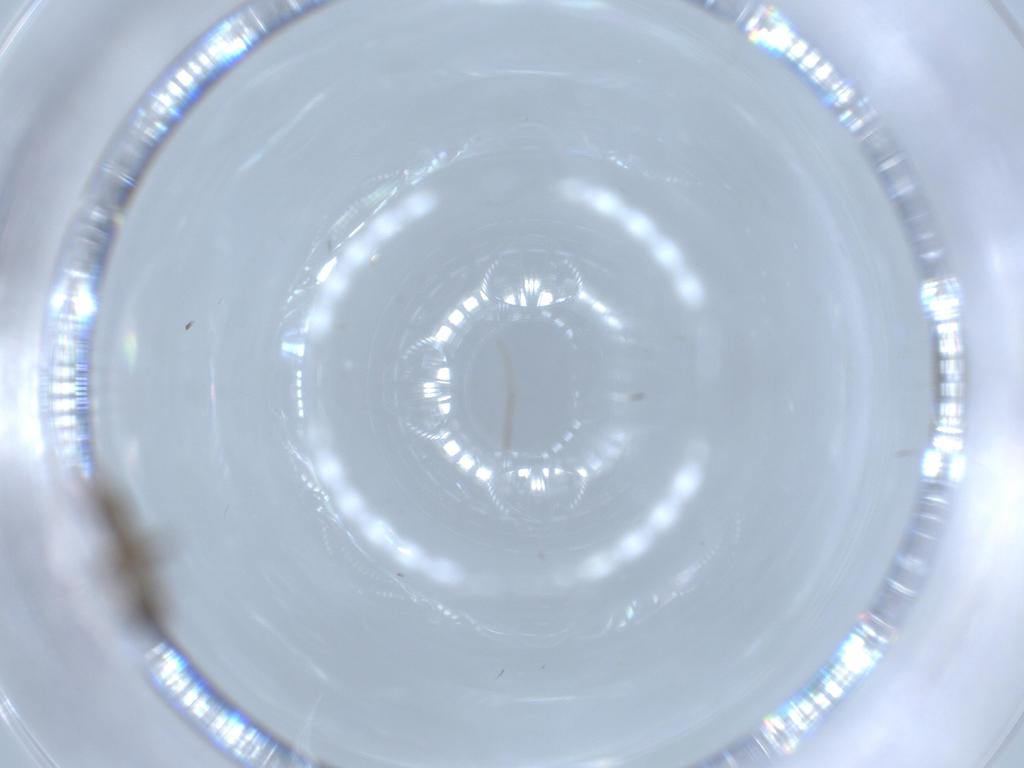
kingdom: Animalia
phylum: Arthropoda
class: Insecta
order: Diptera
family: Cecidomyiidae
